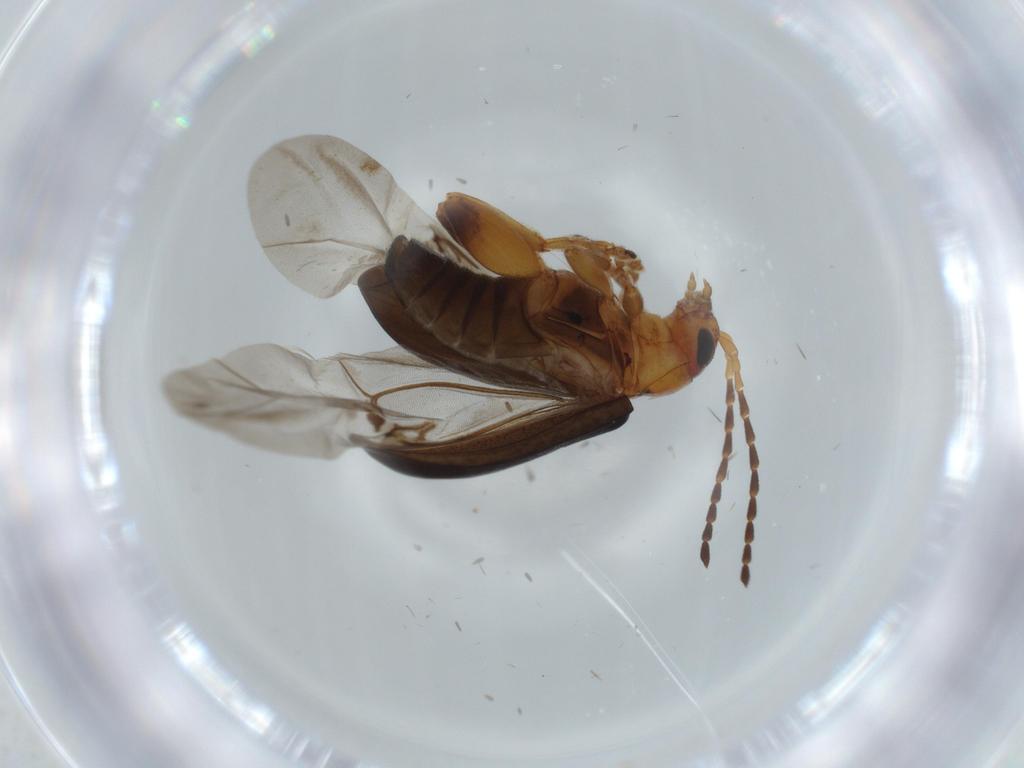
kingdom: Animalia
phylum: Arthropoda
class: Insecta
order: Coleoptera
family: Chrysomelidae
